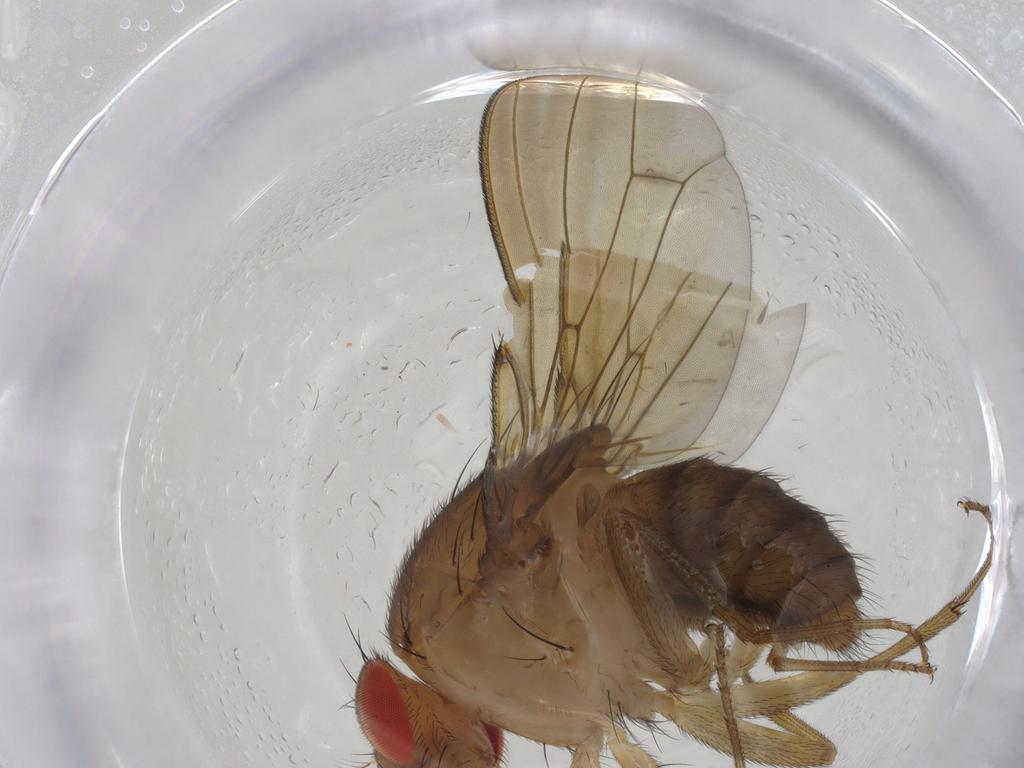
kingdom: Animalia
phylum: Arthropoda
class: Insecta
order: Diptera
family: Drosophilidae
